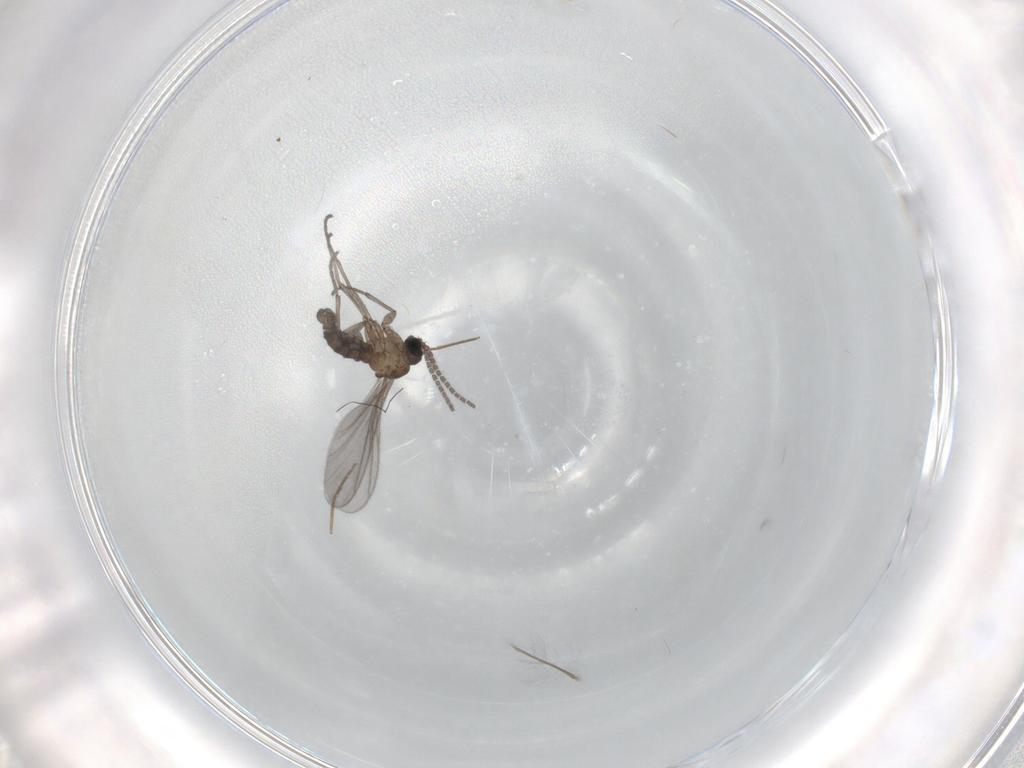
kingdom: Animalia
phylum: Arthropoda
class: Insecta
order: Diptera
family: Sciaridae
